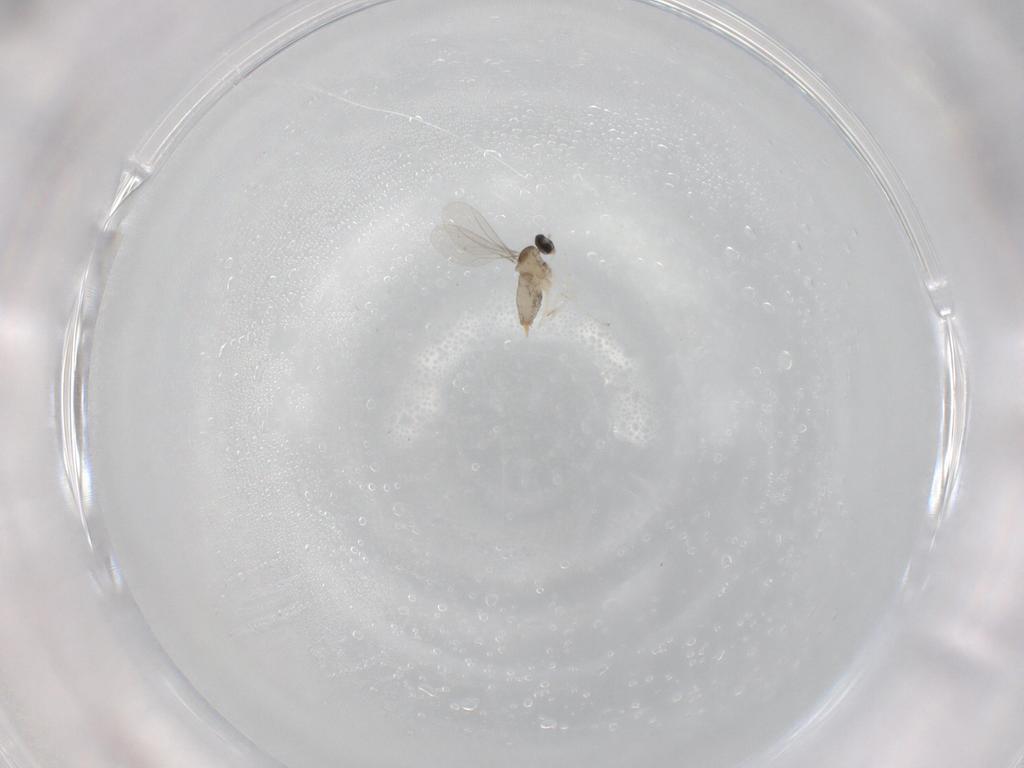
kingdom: Animalia
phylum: Arthropoda
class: Insecta
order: Diptera
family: Cecidomyiidae
